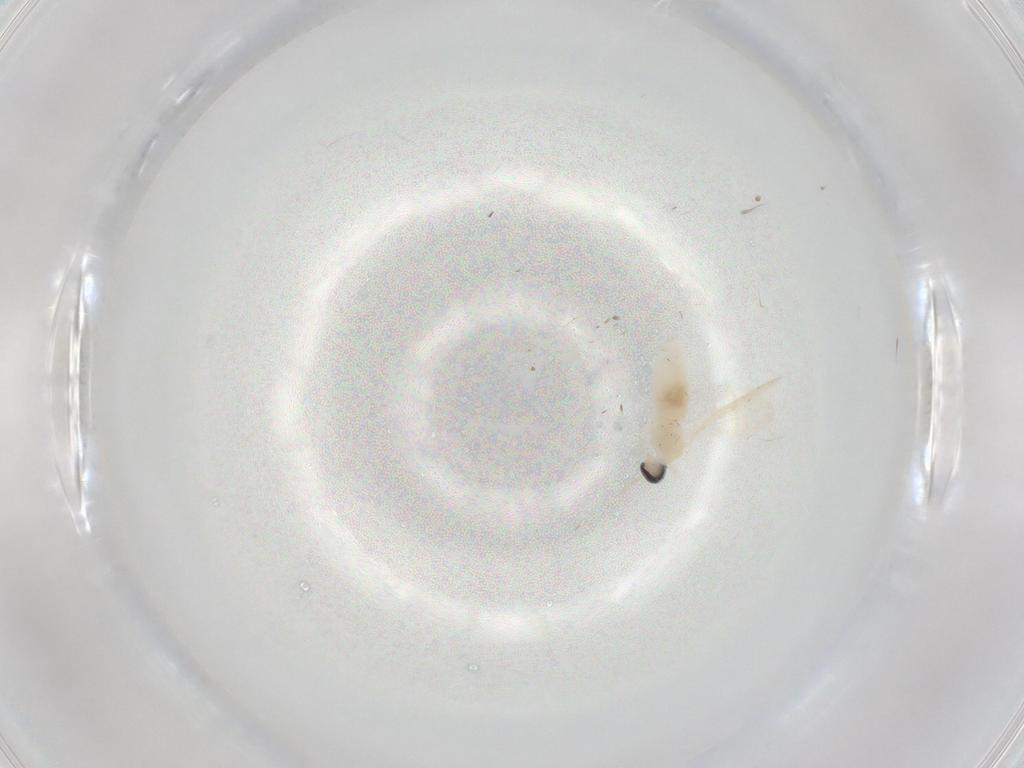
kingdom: Animalia
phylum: Arthropoda
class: Insecta
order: Diptera
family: Cecidomyiidae
